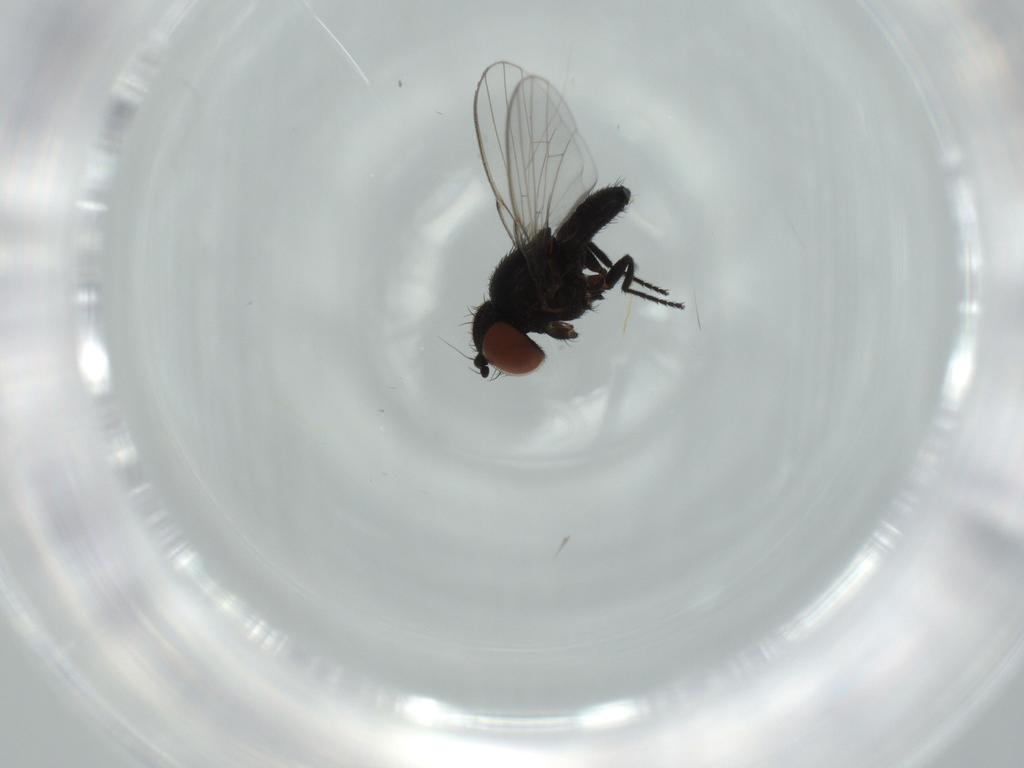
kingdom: Animalia
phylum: Arthropoda
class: Insecta
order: Diptera
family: Milichiidae
